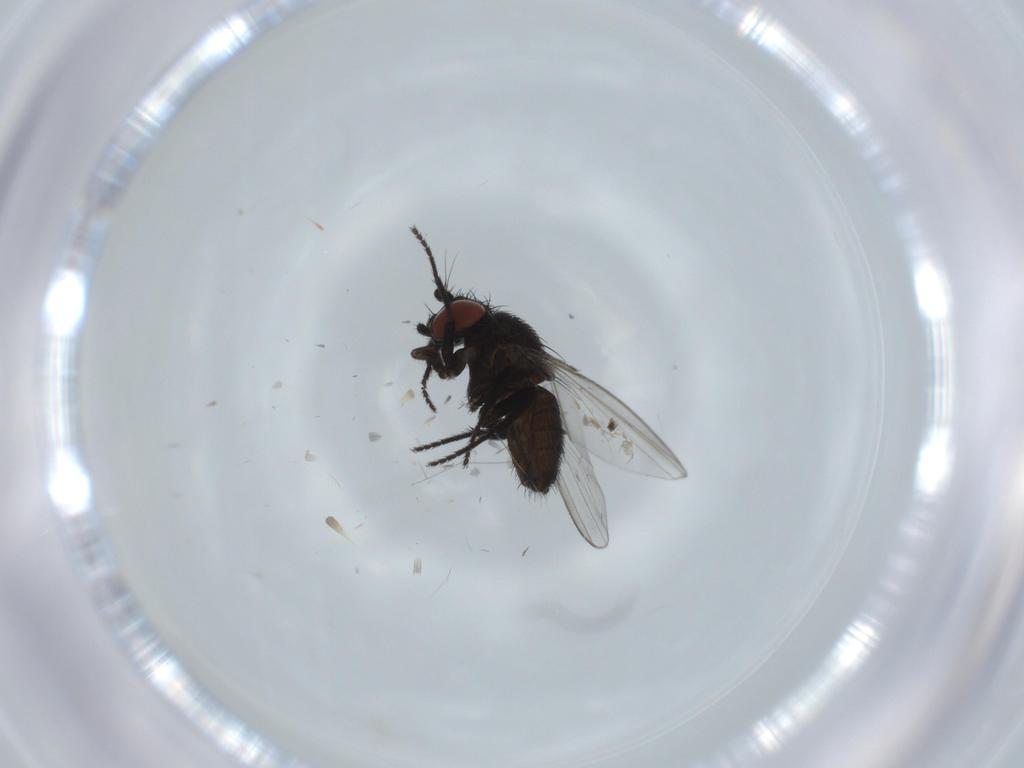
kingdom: Animalia
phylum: Arthropoda
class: Insecta
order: Diptera
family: Milichiidae
